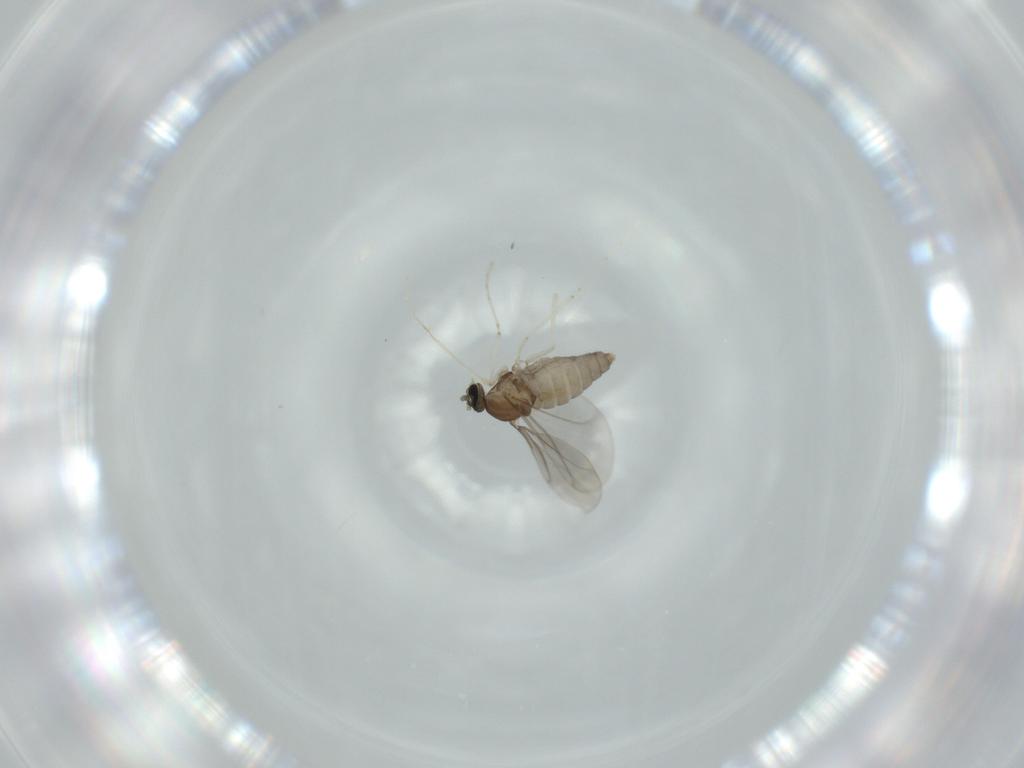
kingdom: Animalia
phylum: Arthropoda
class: Insecta
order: Diptera
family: Cecidomyiidae
